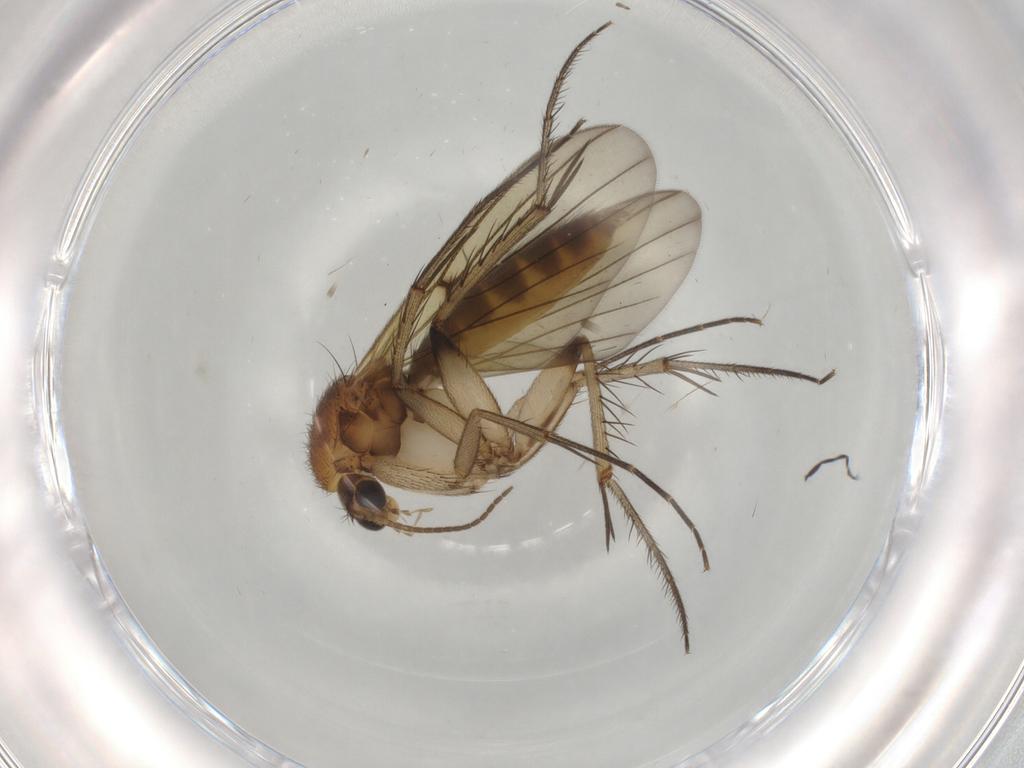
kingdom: Animalia
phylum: Arthropoda
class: Insecta
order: Diptera
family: Mycetophilidae
